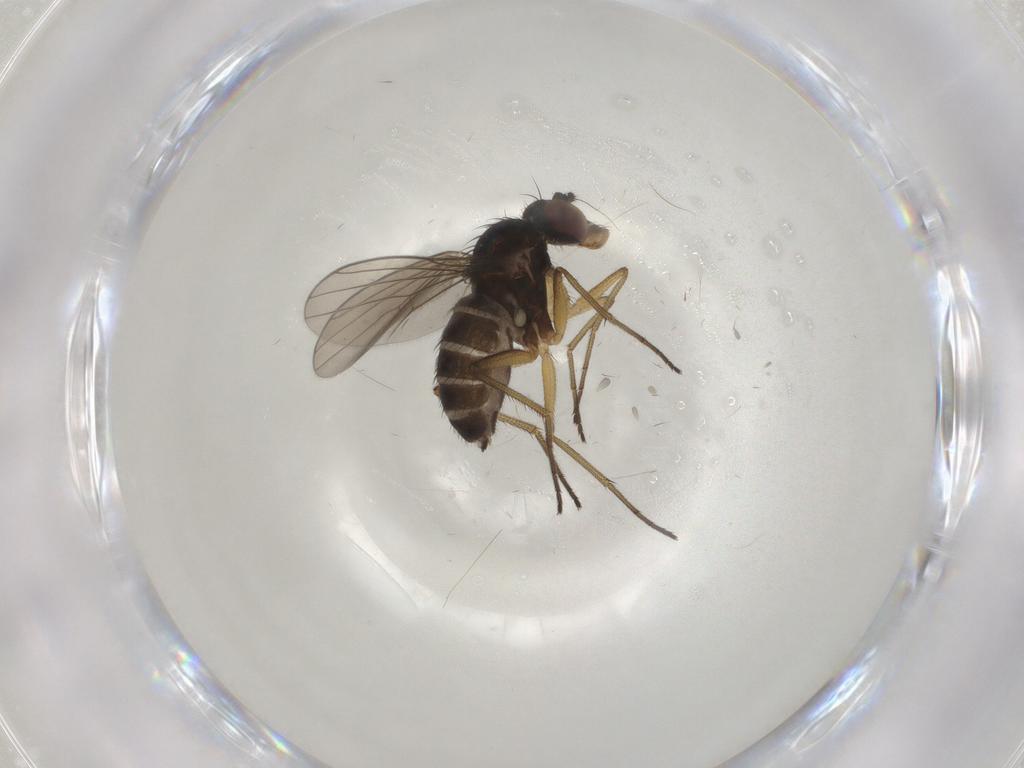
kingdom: Animalia
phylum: Arthropoda
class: Insecta
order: Diptera
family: Dolichopodidae
